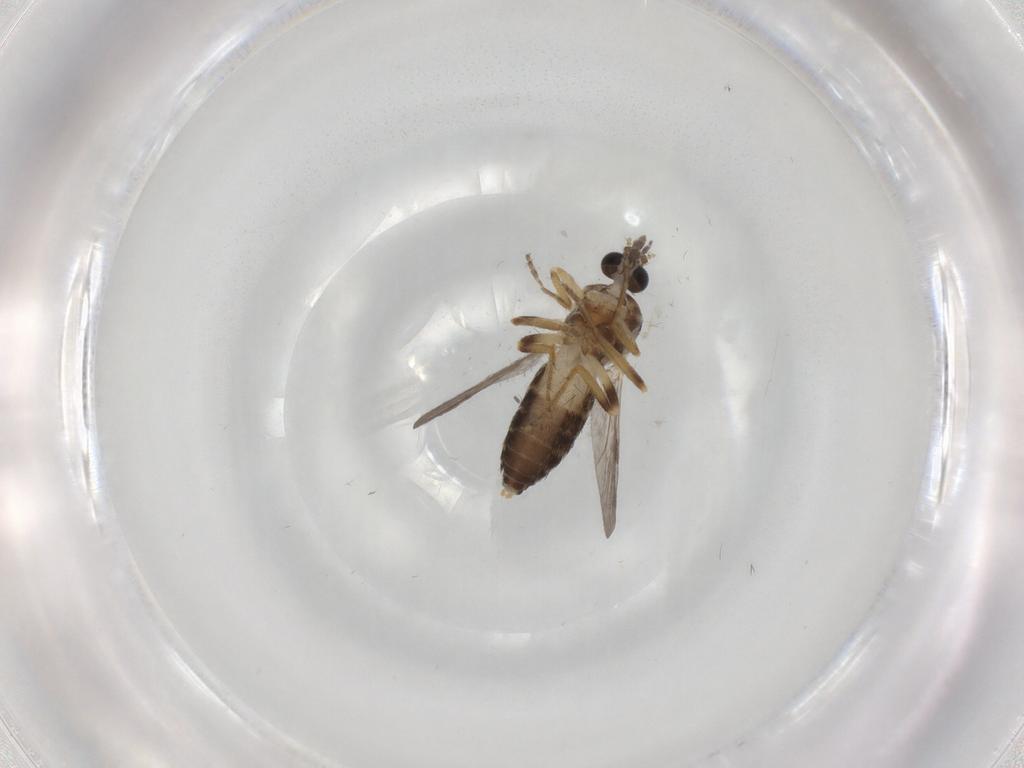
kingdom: Animalia
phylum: Arthropoda
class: Insecta
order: Diptera
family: Ceratopogonidae
